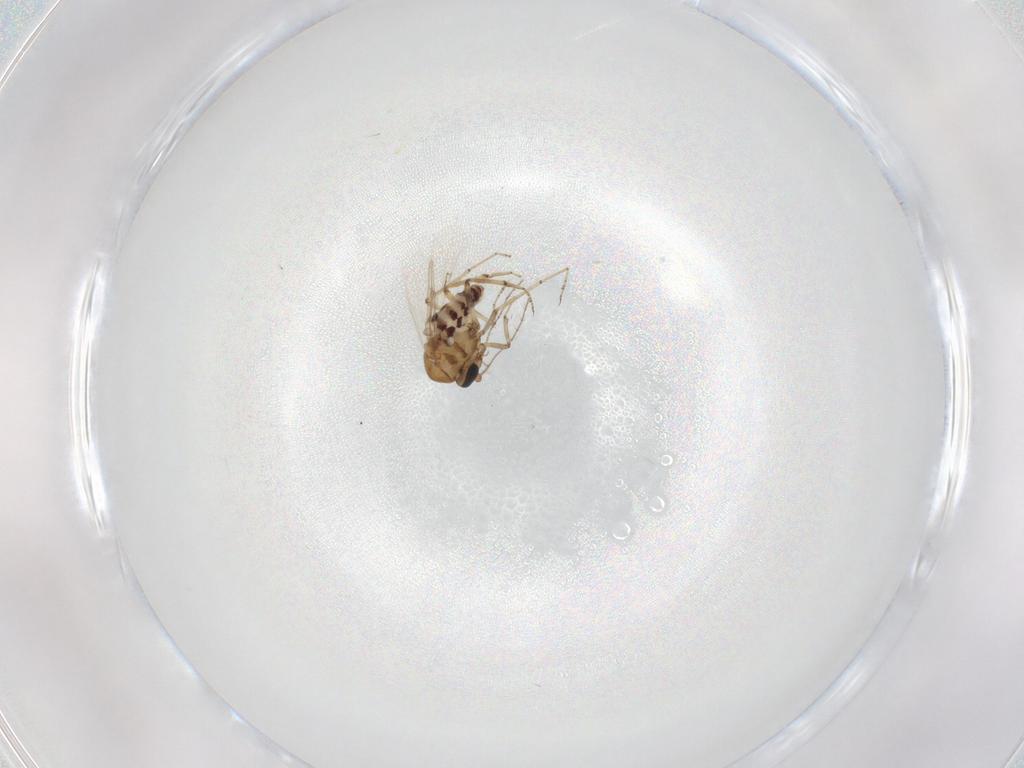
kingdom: Animalia
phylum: Arthropoda
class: Insecta
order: Diptera
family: Ceratopogonidae
